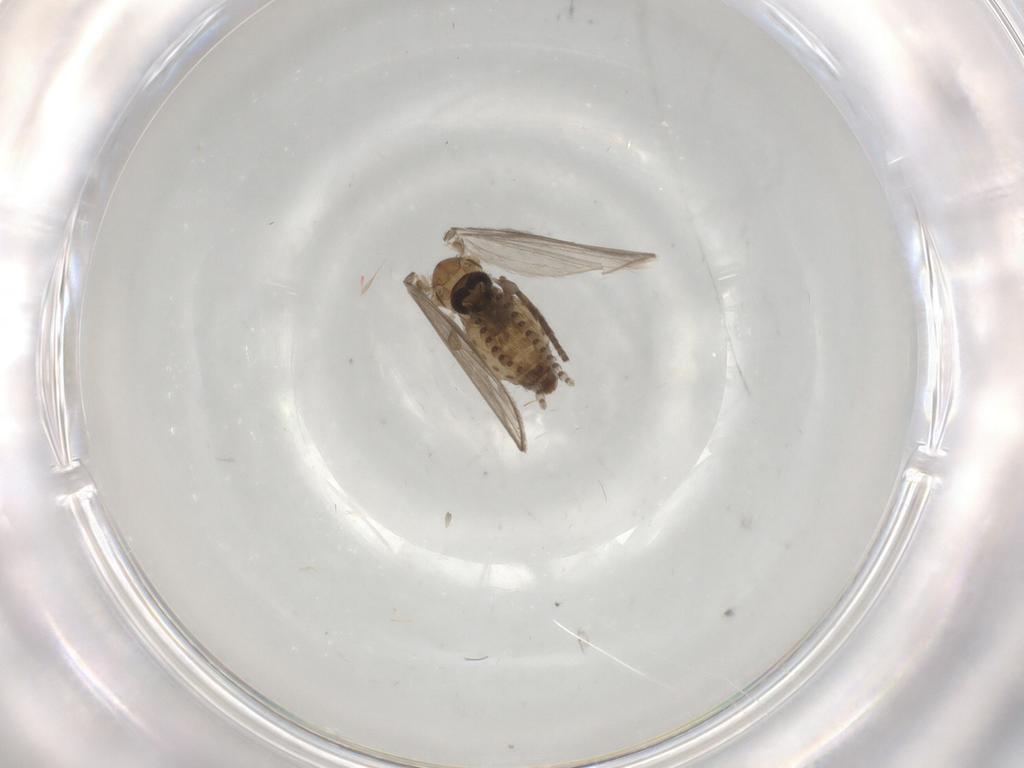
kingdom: Animalia
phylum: Arthropoda
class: Insecta
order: Diptera
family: Psychodidae
